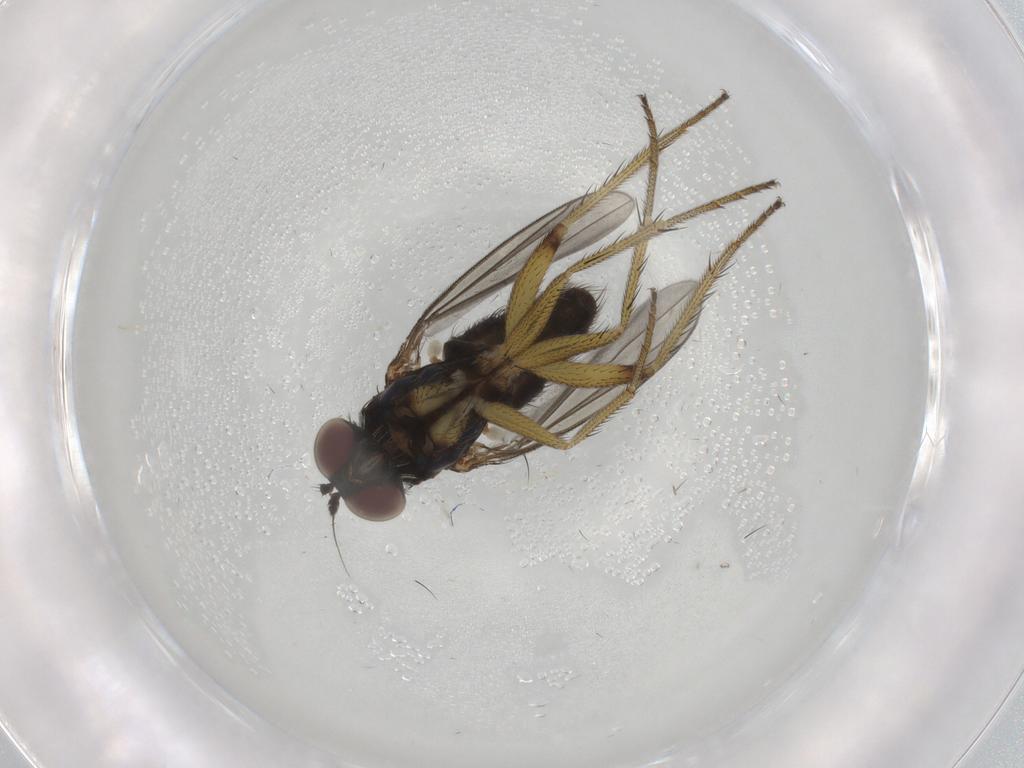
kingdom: Animalia
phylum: Arthropoda
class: Insecta
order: Diptera
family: Dolichopodidae
